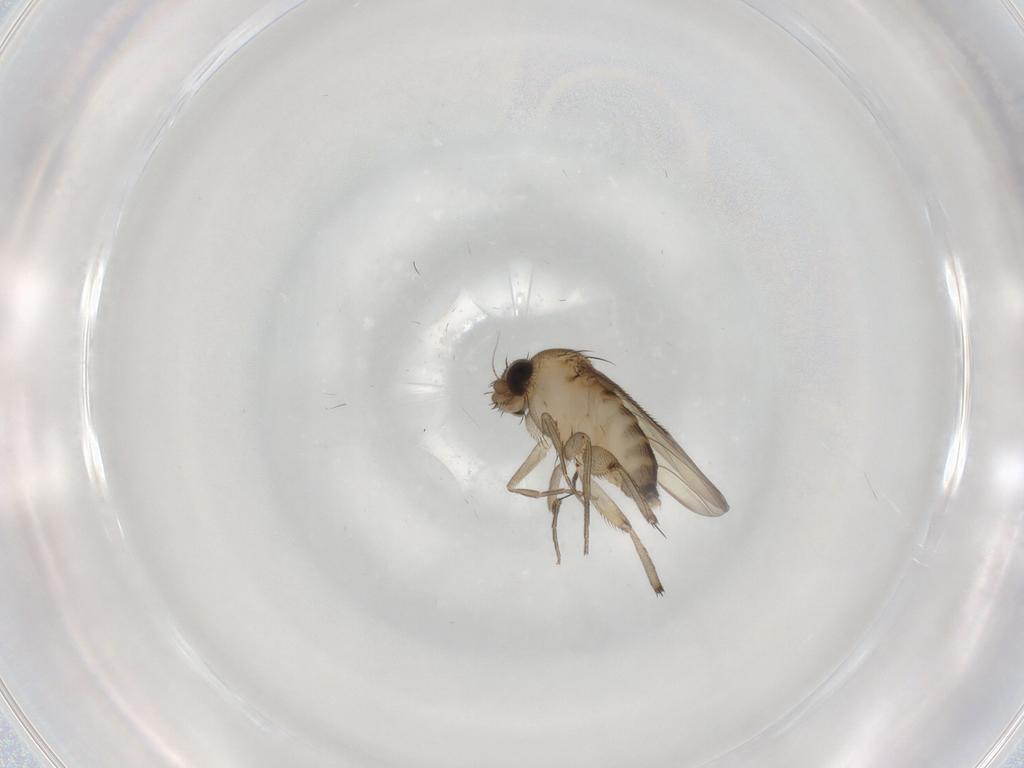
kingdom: Animalia
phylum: Arthropoda
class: Insecta
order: Diptera
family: Phoridae
